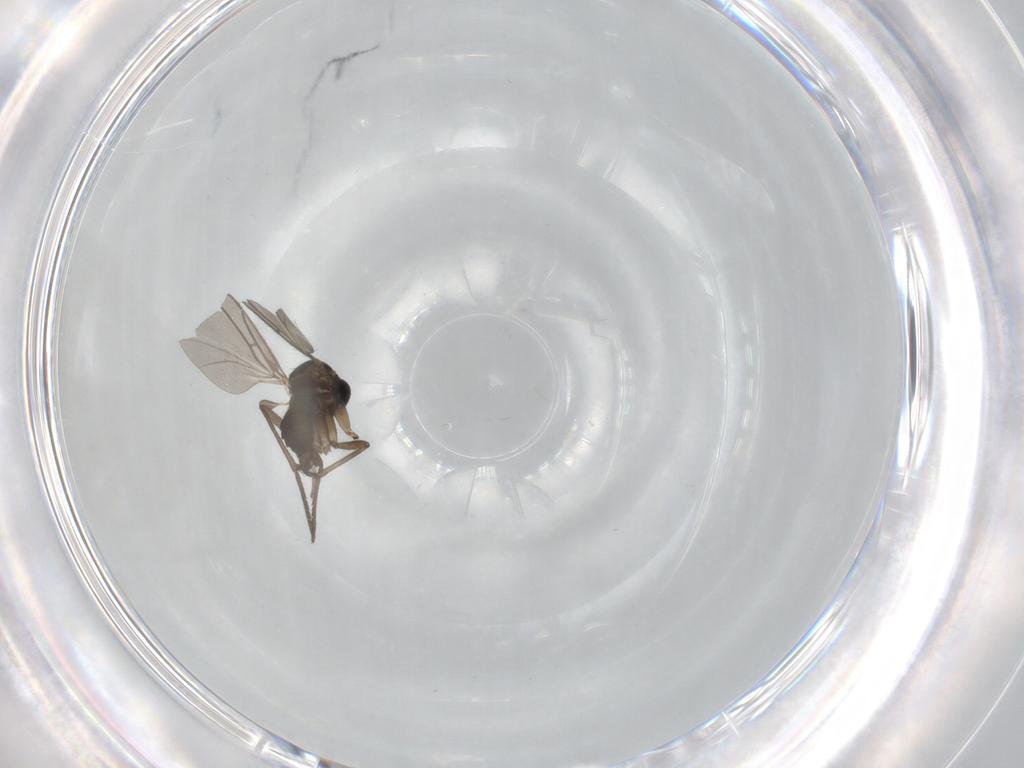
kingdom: Animalia
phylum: Arthropoda
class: Insecta
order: Diptera
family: Sciaridae
